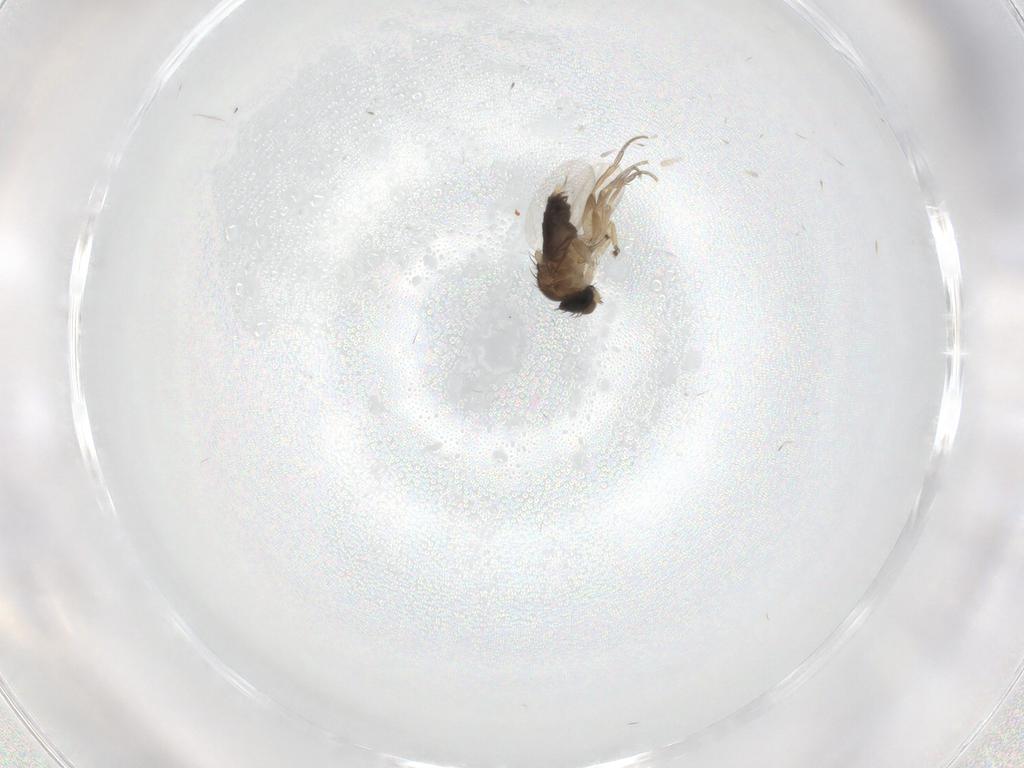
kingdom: Animalia
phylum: Arthropoda
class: Insecta
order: Diptera
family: Phoridae
